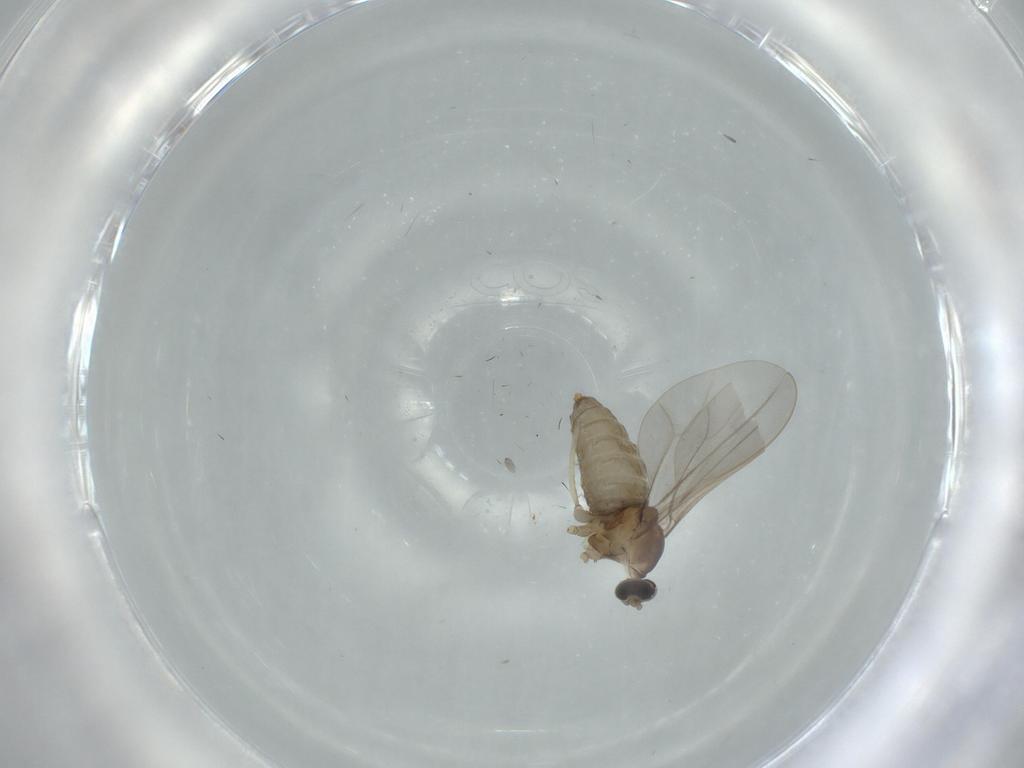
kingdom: Animalia
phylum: Arthropoda
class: Insecta
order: Diptera
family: Cecidomyiidae
